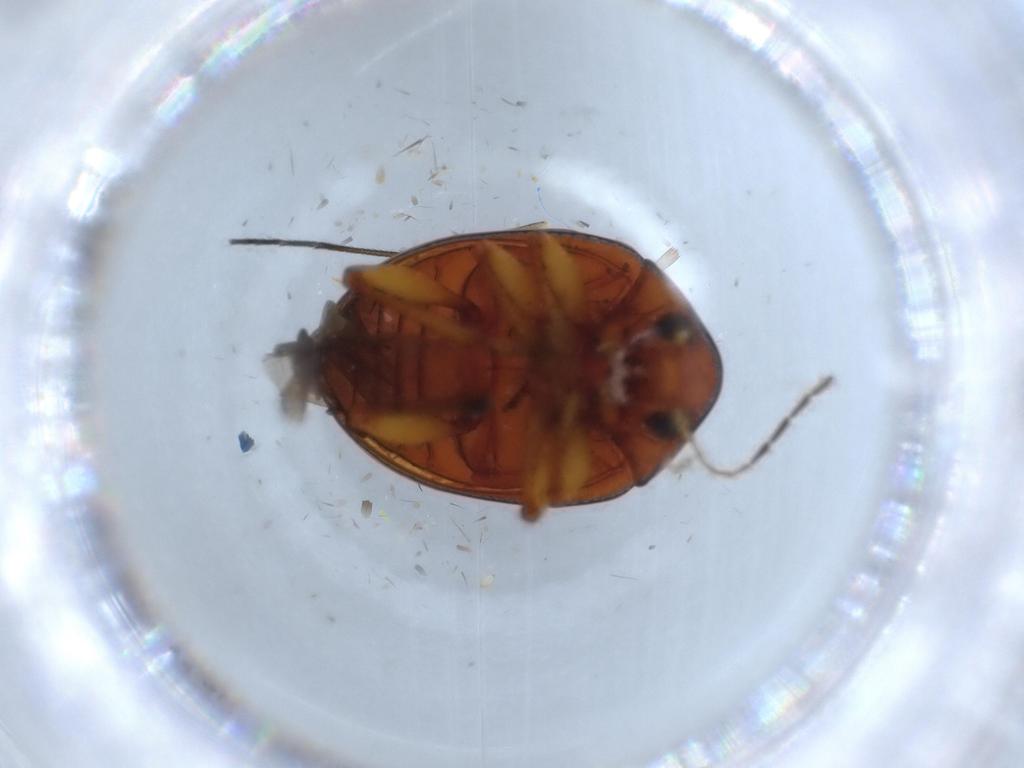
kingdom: Animalia
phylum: Arthropoda
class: Insecta
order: Coleoptera
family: Chrysomelidae
